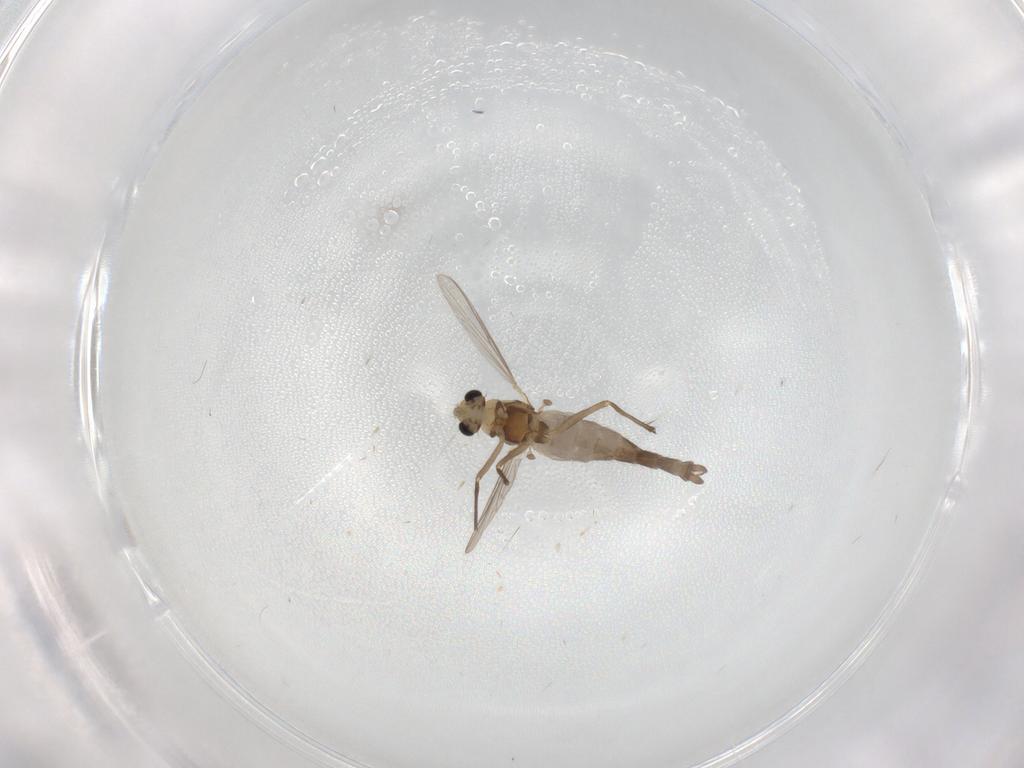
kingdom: Animalia
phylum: Arthropoda
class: Insecta
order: Diptera
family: Chironomidae
